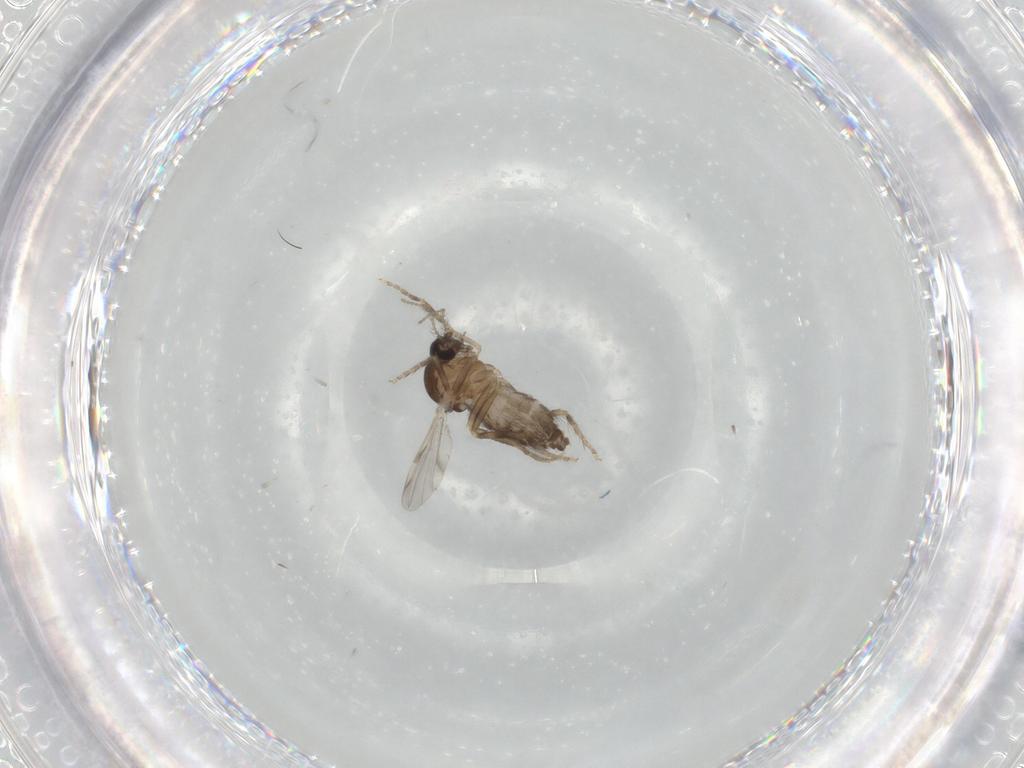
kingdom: Animalia
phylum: Arthropoda
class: Insecta
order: Diptera
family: Ceratopogonidae
